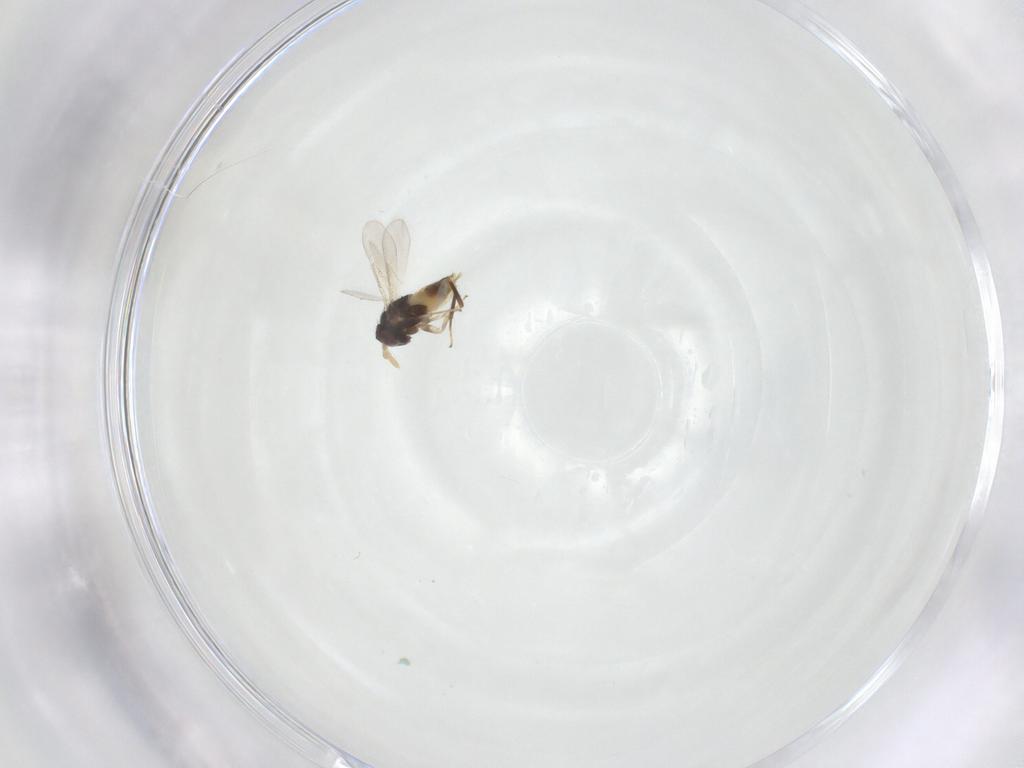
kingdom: Animalia
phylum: Arthropoda
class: Insecta
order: Hymenoptera
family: Aphelinidae
